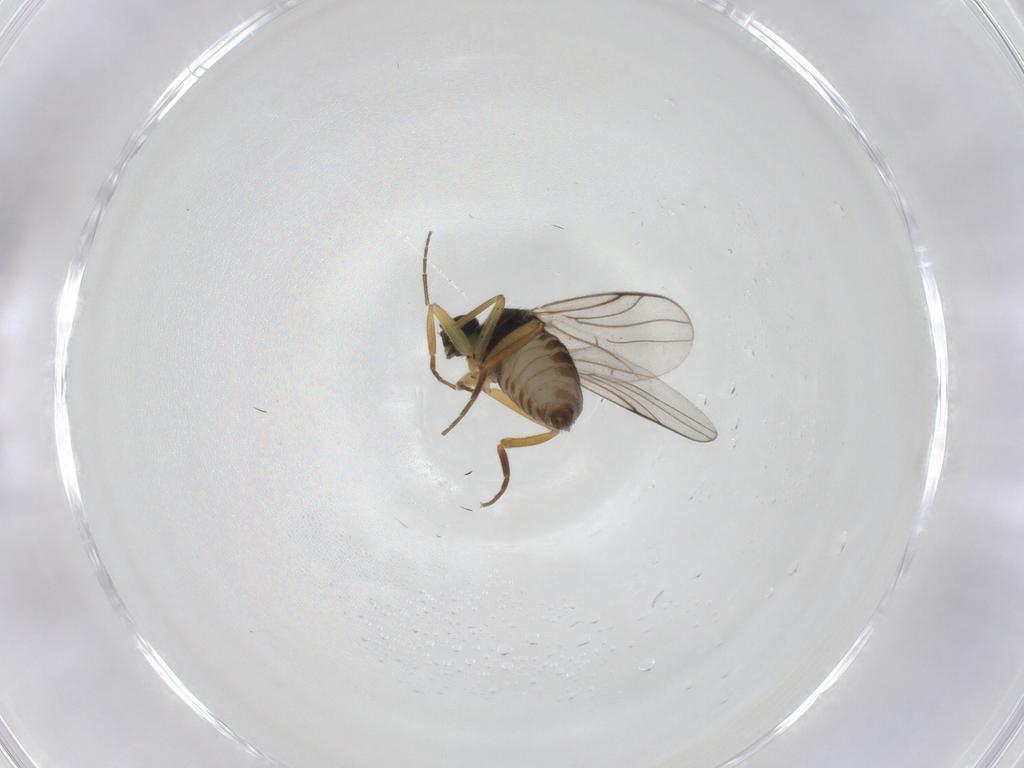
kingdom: Animalia
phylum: Arthropoda
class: Insecta
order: Diptera
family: Hybotidae
